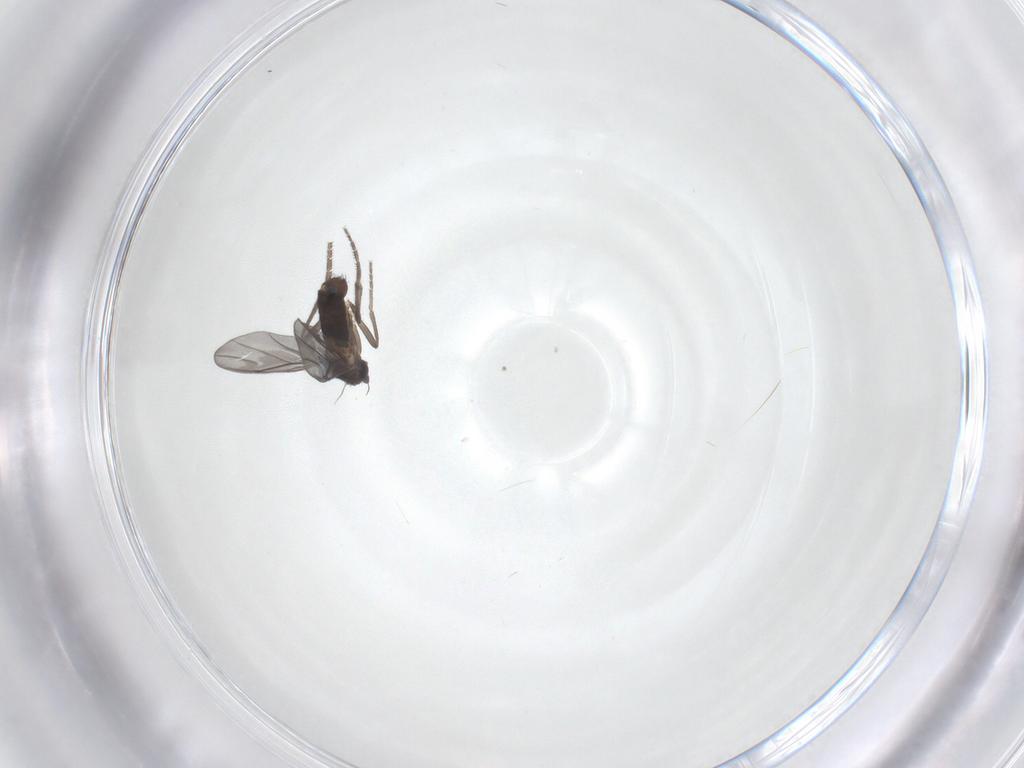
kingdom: Animalia
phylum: Arthropoda
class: Insecta
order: Diptera
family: Phoridae
